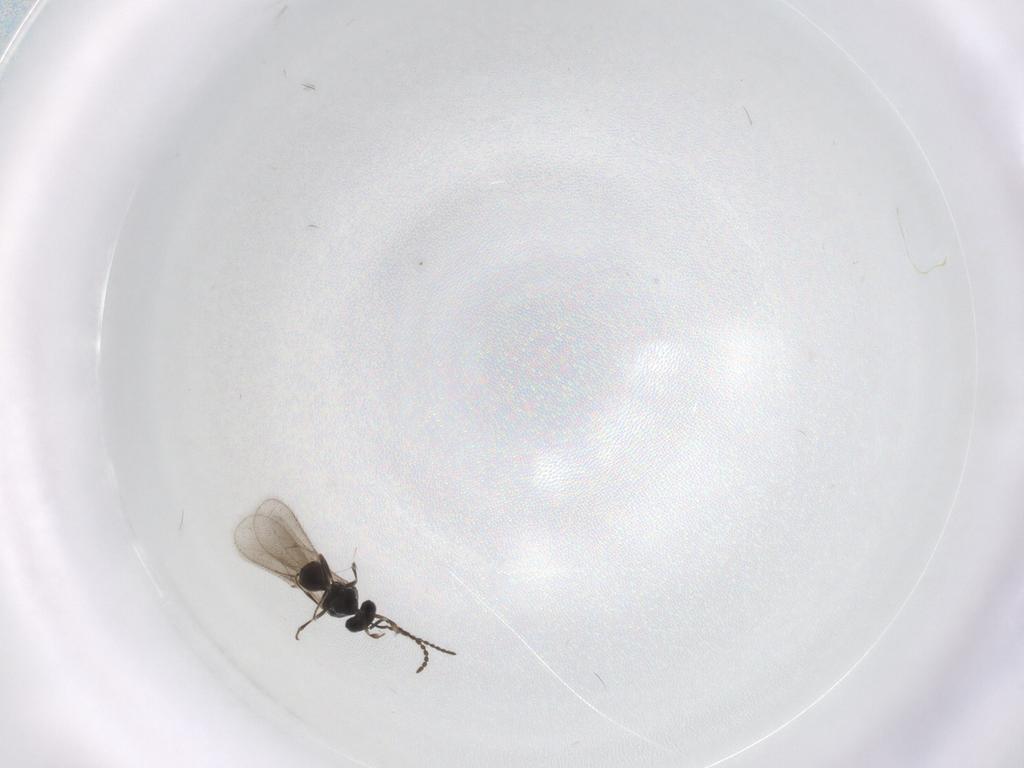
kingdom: Animalia
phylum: Arthropoda
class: Insecta
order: Hymenoptera
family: Scelionidae
